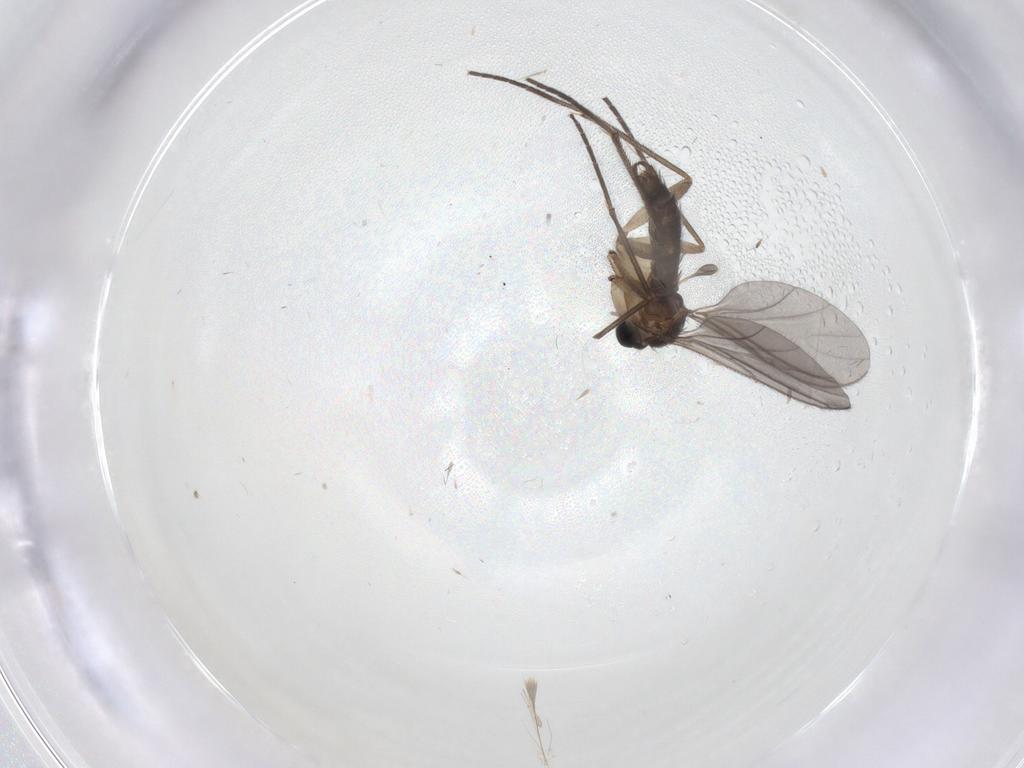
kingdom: Animalia
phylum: Arthropoda
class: Insecta
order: Diptera
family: Sciaridae
